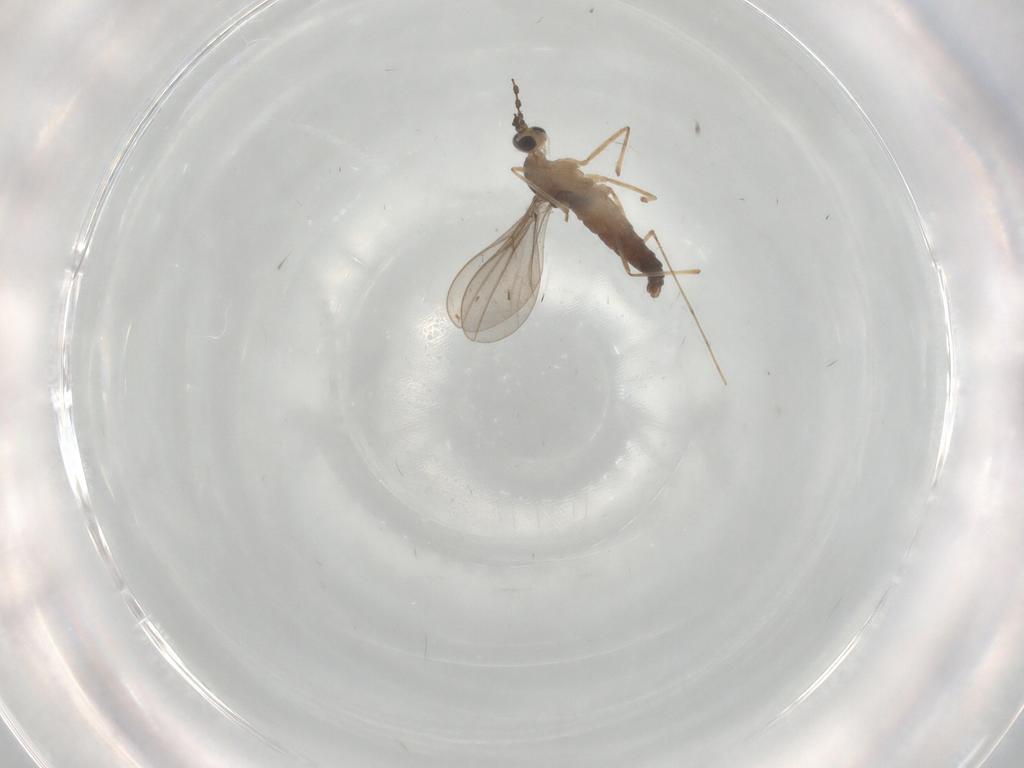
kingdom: Animalia
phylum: Arthropoda
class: Insecta
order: Diptera
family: Cecidomyiidae
